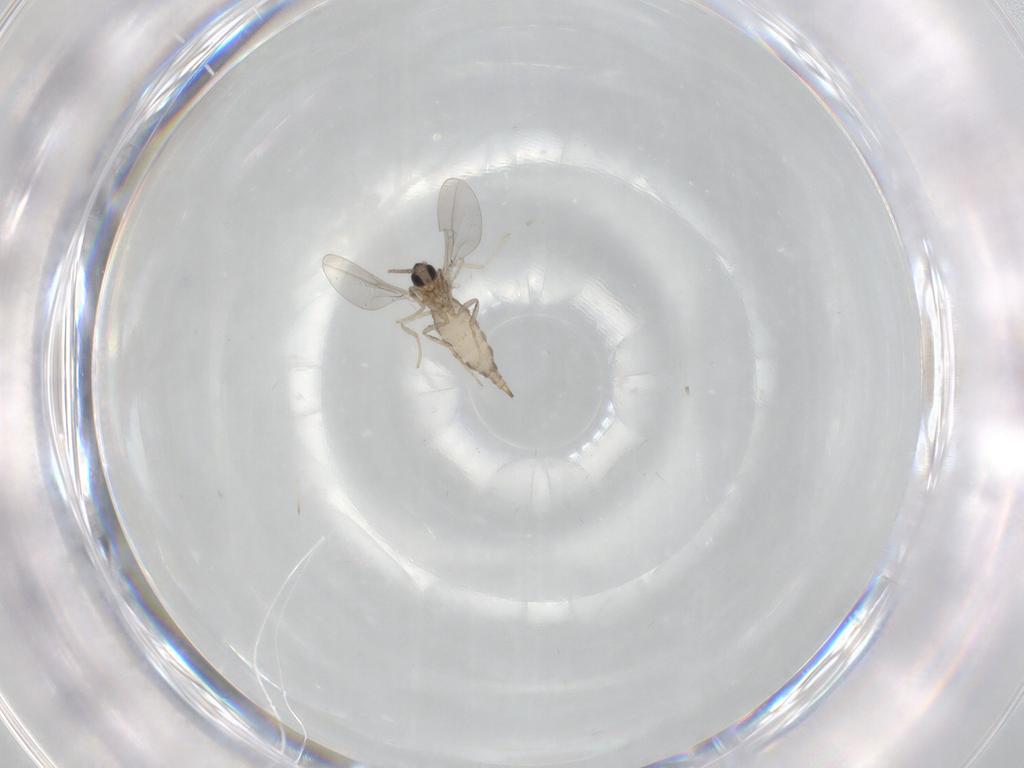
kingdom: Animalia
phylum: Arthropoda
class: Insecta
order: Diptera
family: Cecidomyiidae
